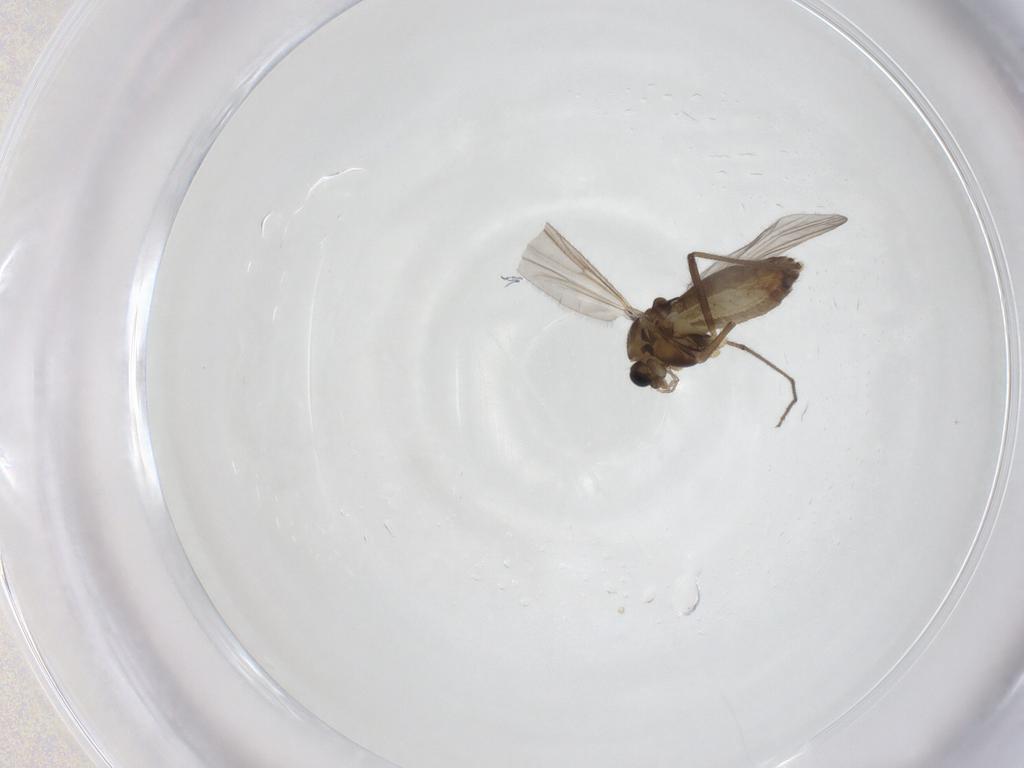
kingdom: Animalia
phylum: Arthropoda
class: Insecta
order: Diptera
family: Chironomidae
